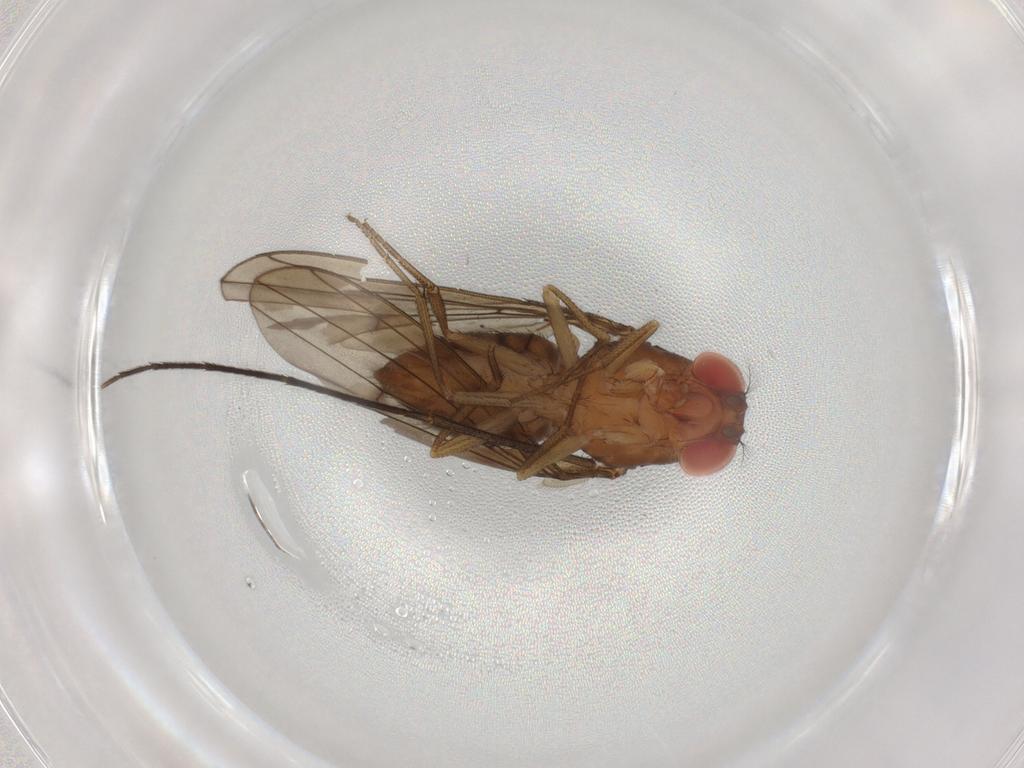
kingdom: Animalia
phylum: Arthropoda
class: Insecta
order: Diptera
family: Drosophilidae
